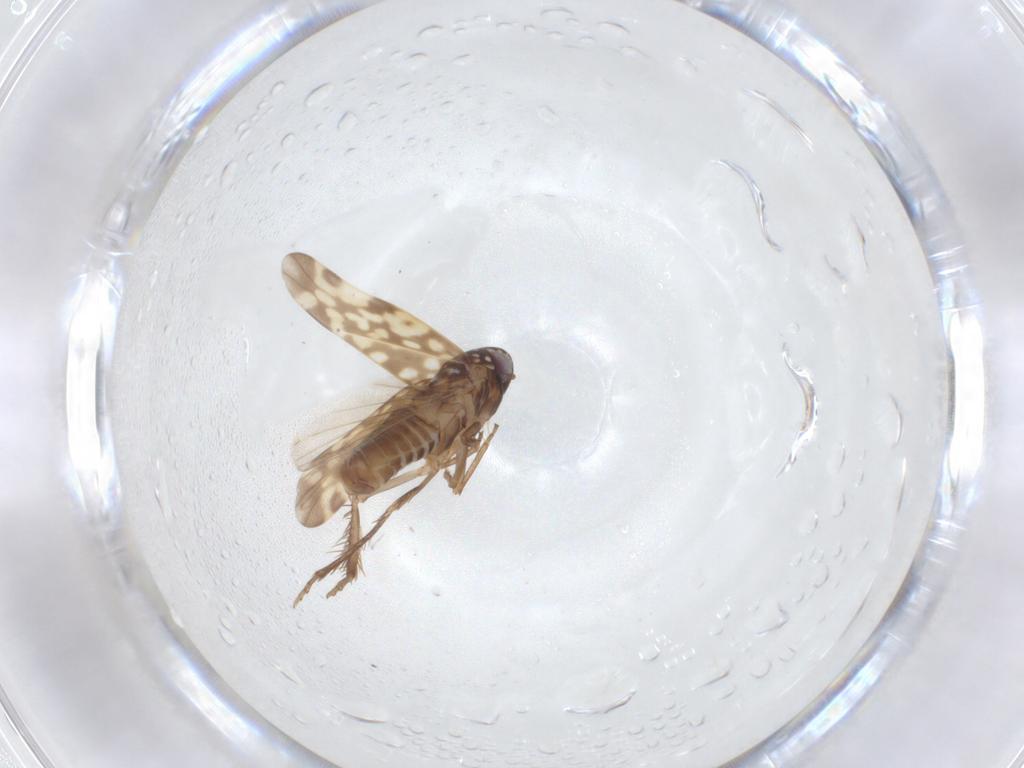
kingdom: Animalia
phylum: Arthropoda
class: Insecta
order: Hemiptera
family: Cicadellidae
